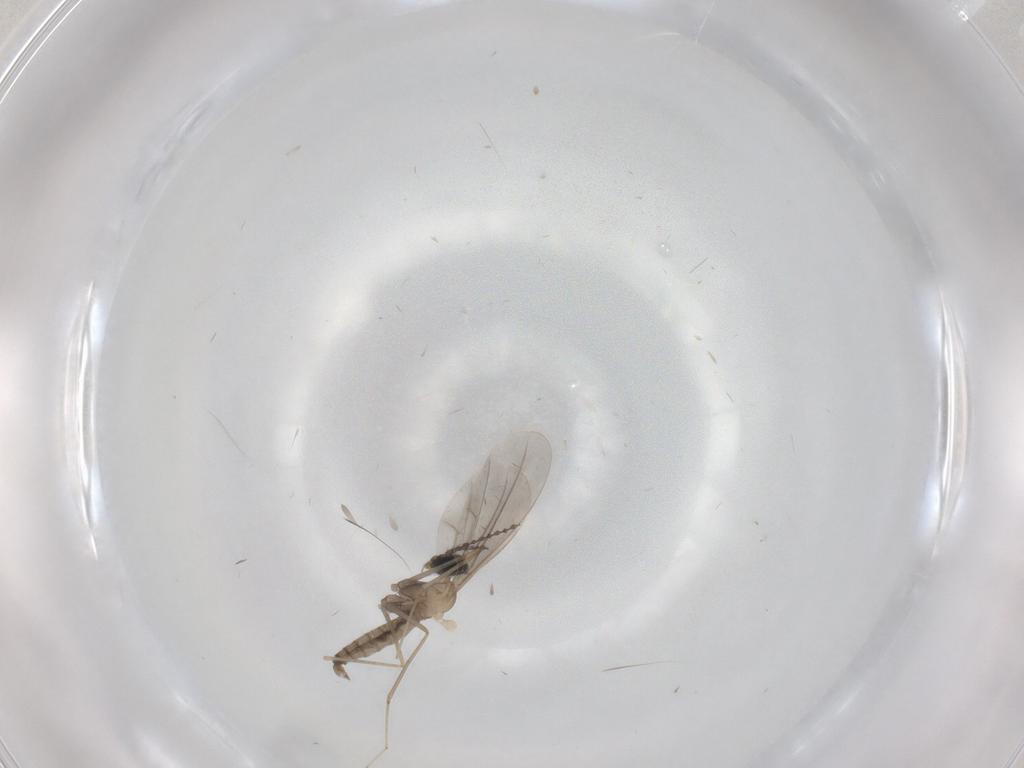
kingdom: Animalia
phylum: Arthropoda
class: Insecta
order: Diptera
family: Cecidomyiidae
